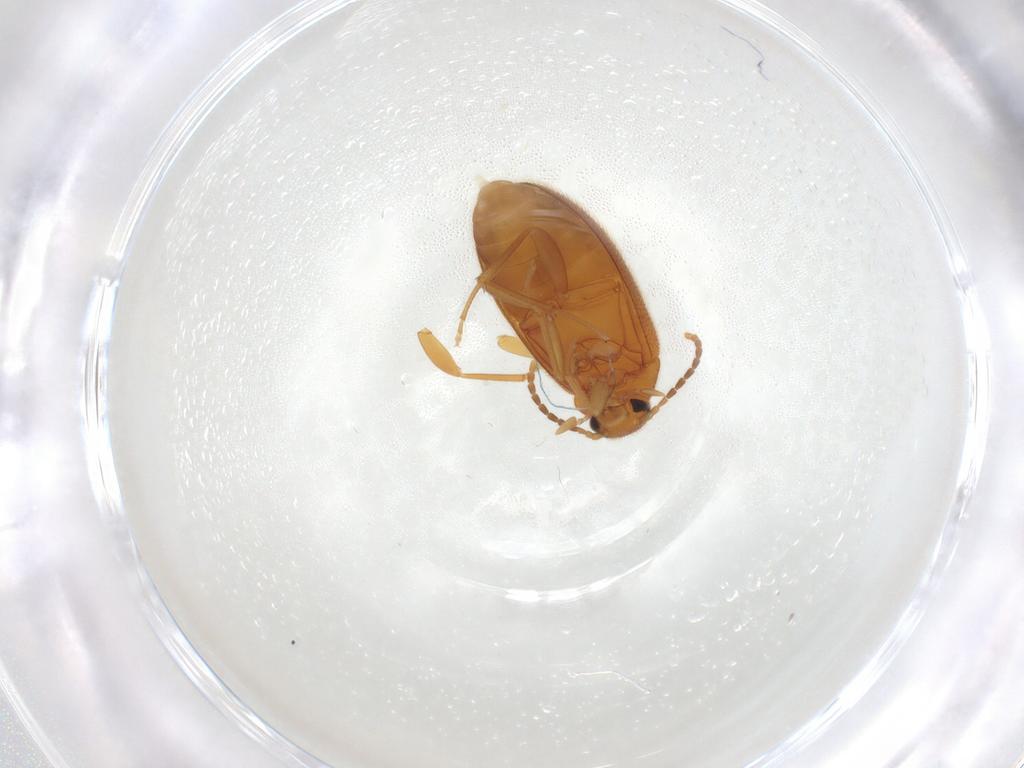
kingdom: Animalia
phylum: Arthropoda
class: Insecta
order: Coleoptera
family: Scraptiidae
